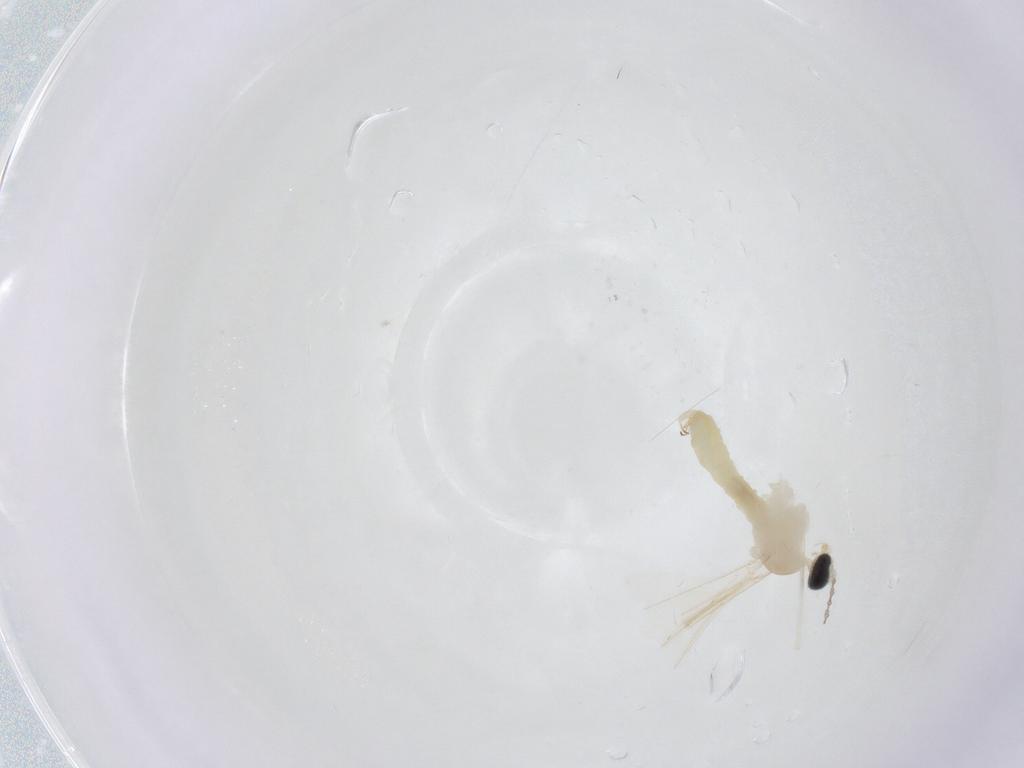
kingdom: Animalia
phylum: Arthropoda
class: Insecta
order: Diptera
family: Cecidomyiidae
